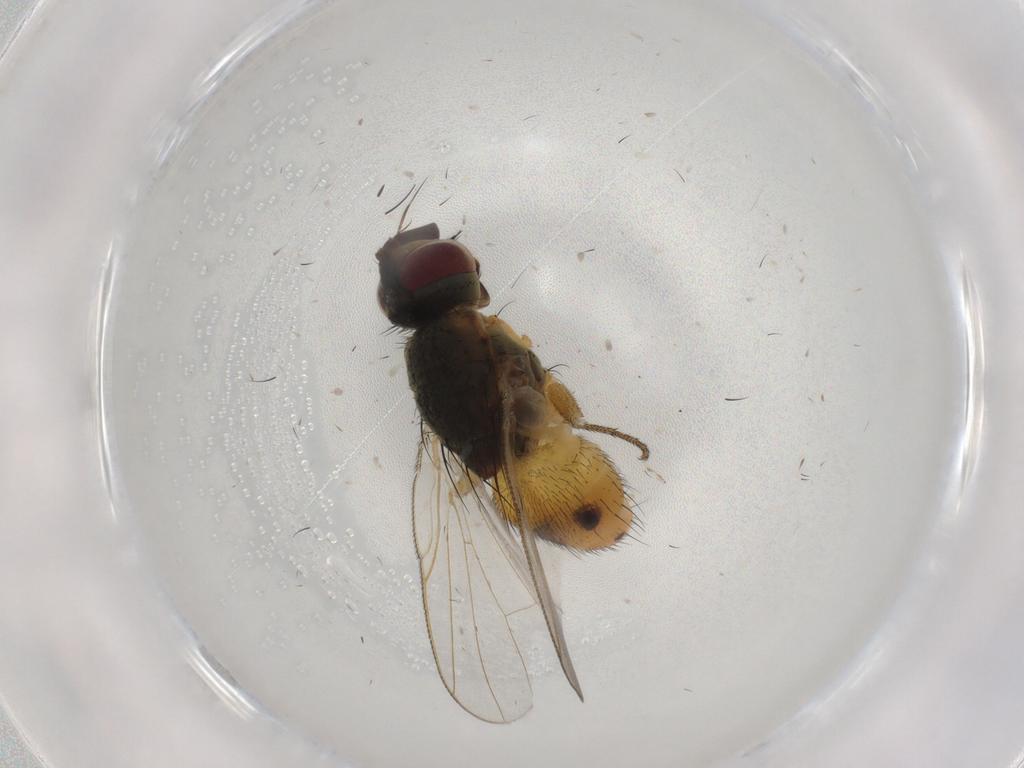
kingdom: Animalia
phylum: Arthropoda
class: Insecta
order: Diptera
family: Muscidae
